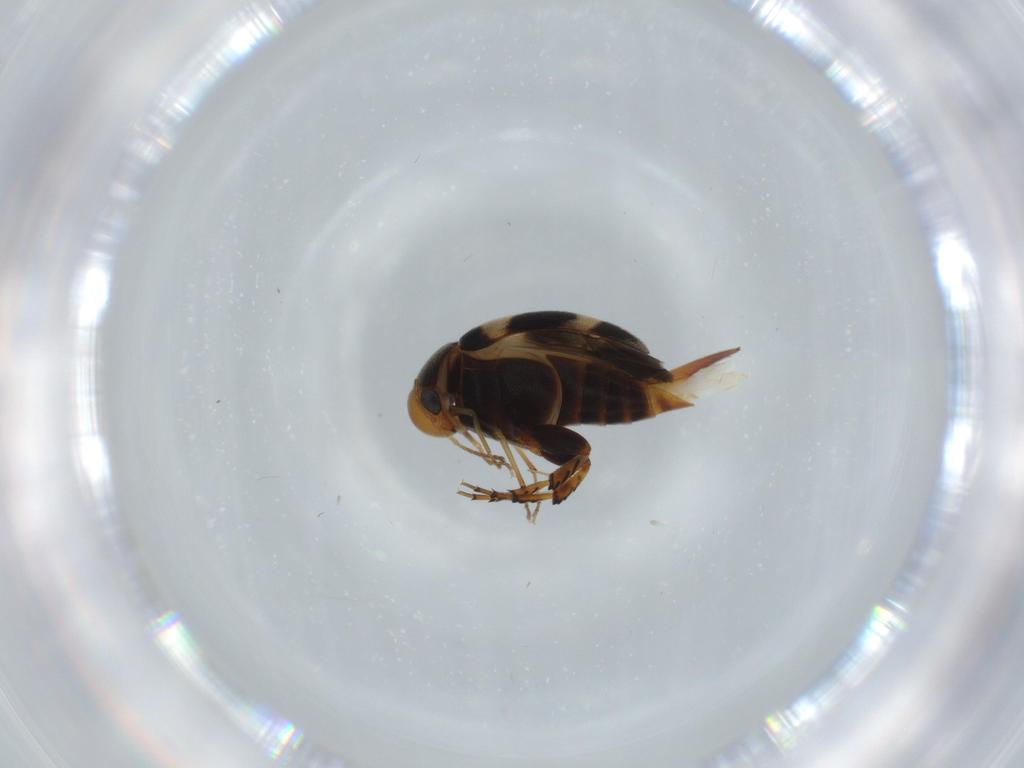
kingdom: Animalia
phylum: Arthropoda
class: Insecta
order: Coleoptera
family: Mordellidae
